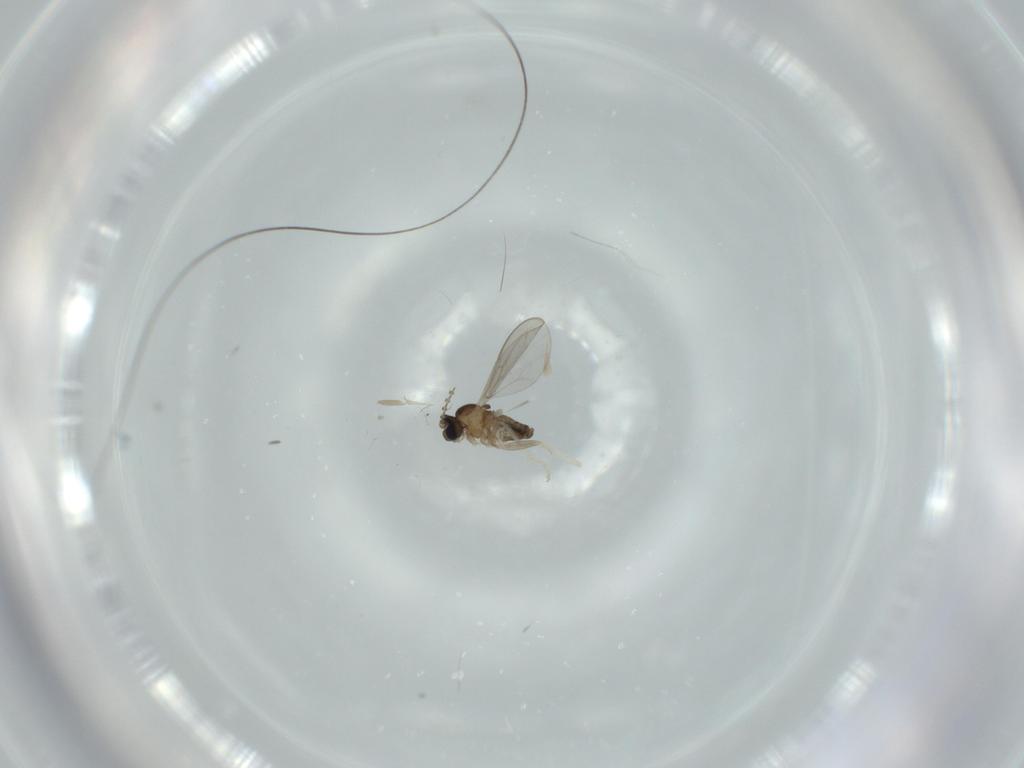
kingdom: Animalia
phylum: Arthropoda
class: Insecta
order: Diptera
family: Cecidomyiidae
